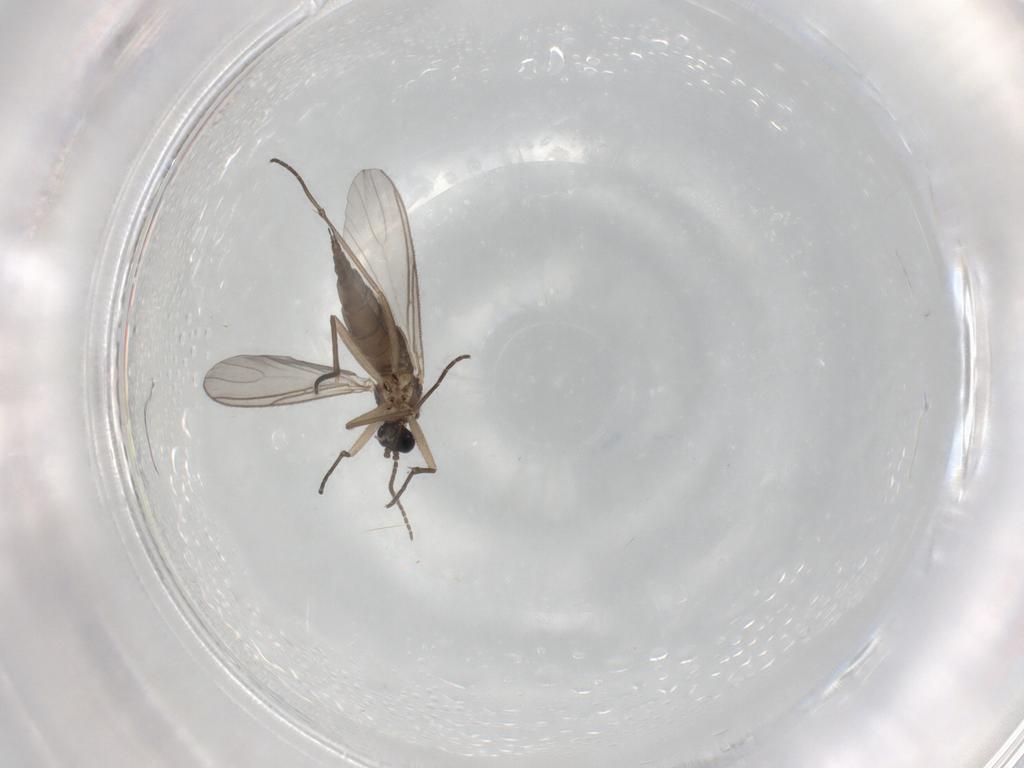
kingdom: Animalia
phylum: Arthropoda
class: Insecta
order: Diptera
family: Sciaridae
